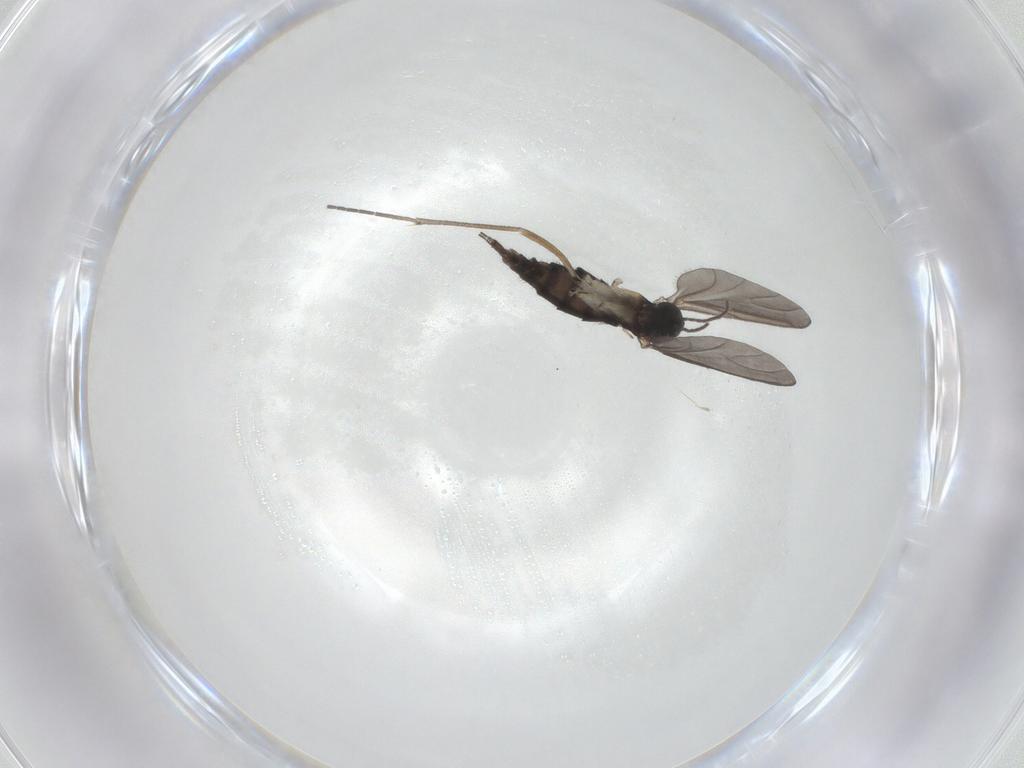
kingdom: Animalia
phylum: Arthropoda
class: Insecta
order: Diptera
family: Sciaridae
